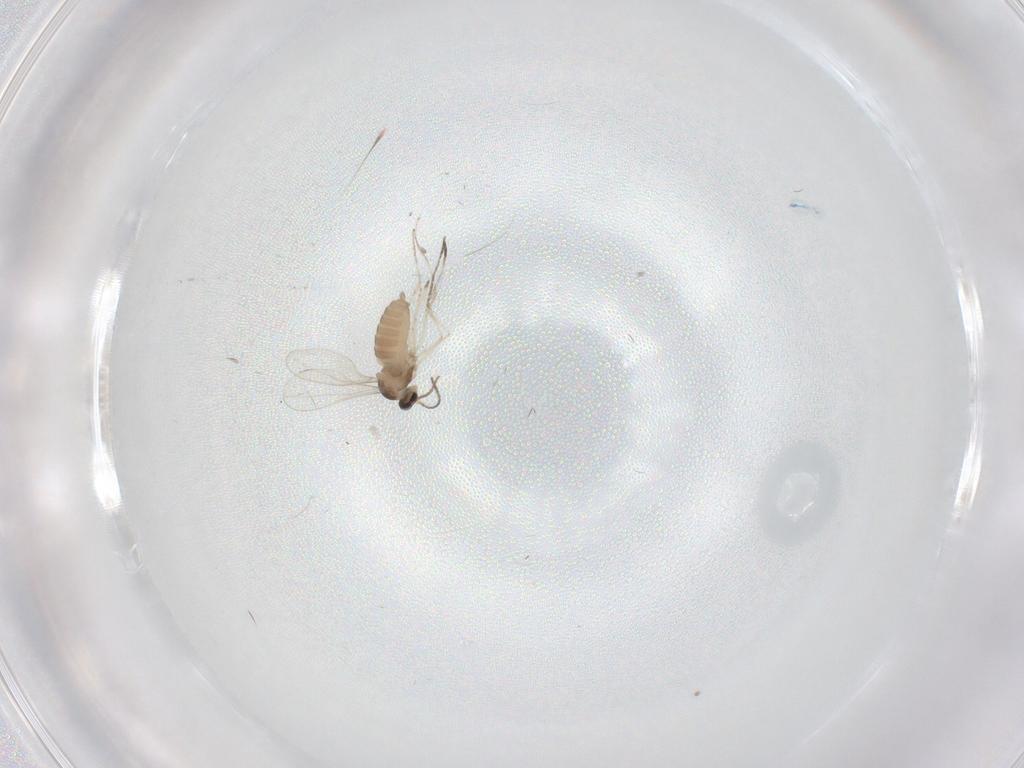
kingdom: Animalia
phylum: Arthropoda
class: Insecta
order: Diptera
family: Cecidomyiidae
